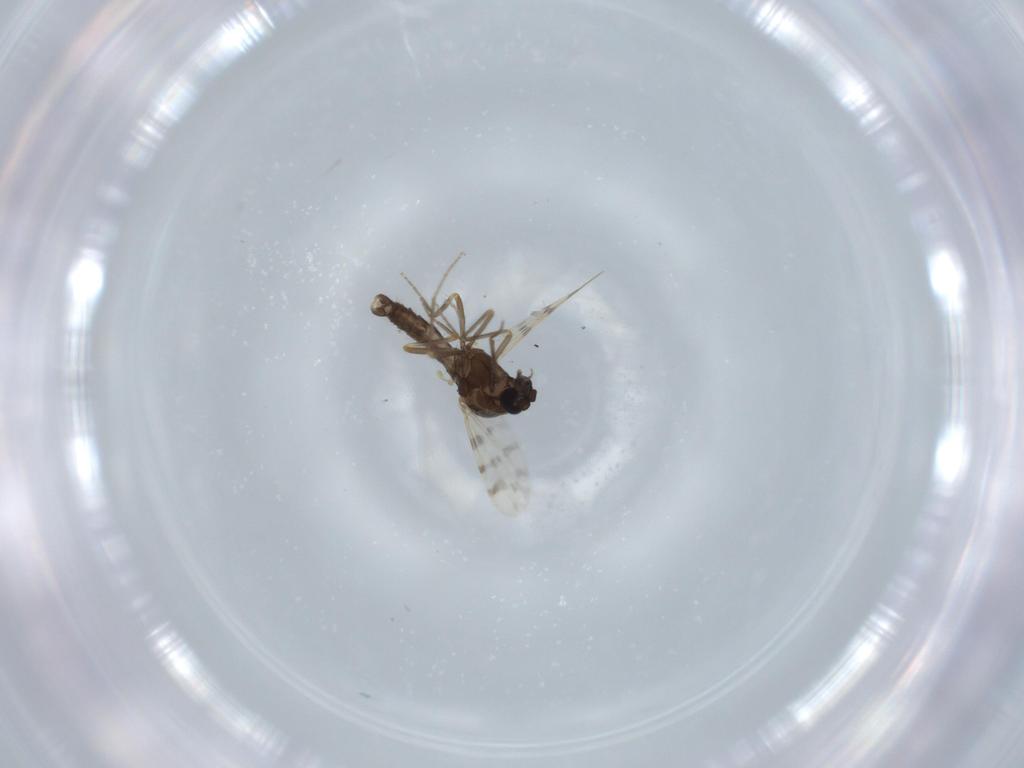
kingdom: Animalia
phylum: Arthropoda
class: Insecta
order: Diptera
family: Ceratopogonidae
